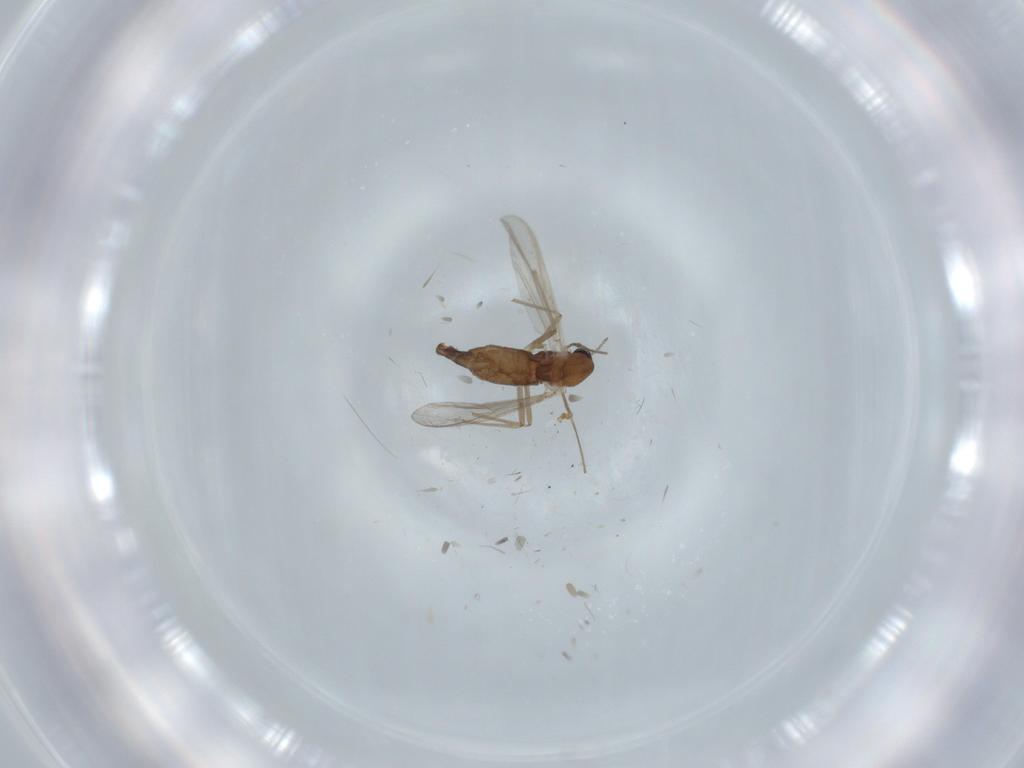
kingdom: Animalia
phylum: Arthropoda
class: Insecta
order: Diptera
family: Chironomidae
